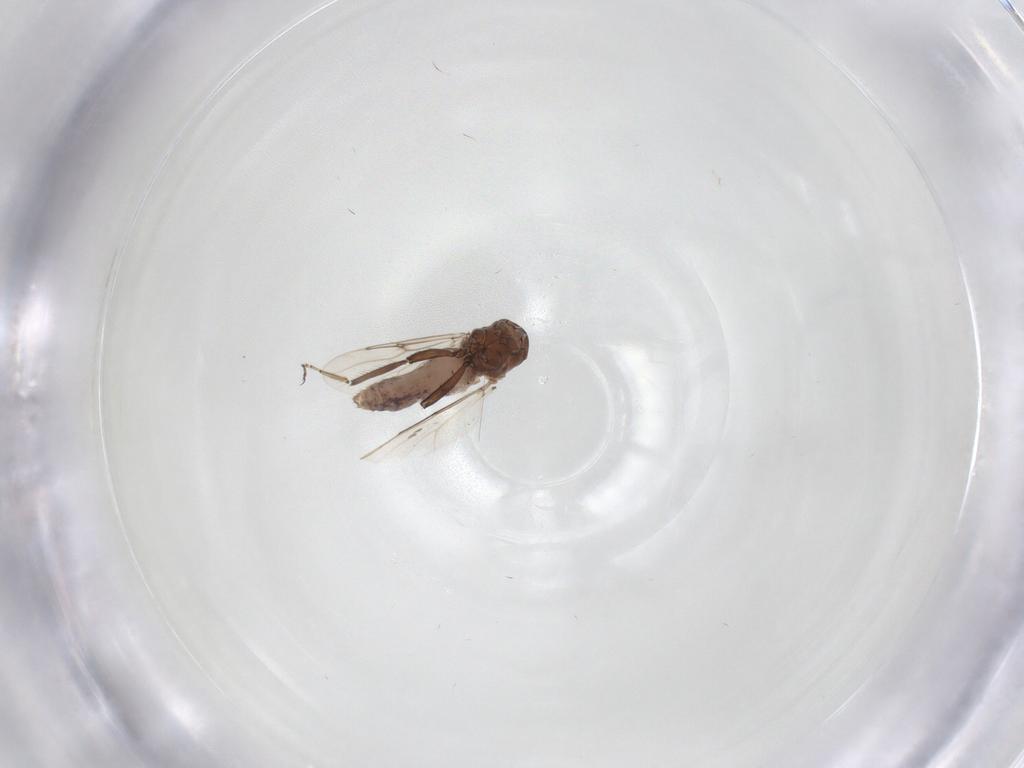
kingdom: Animalia
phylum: Arthropoda
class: Insecta
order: Diptera
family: Ceratopogonidae
